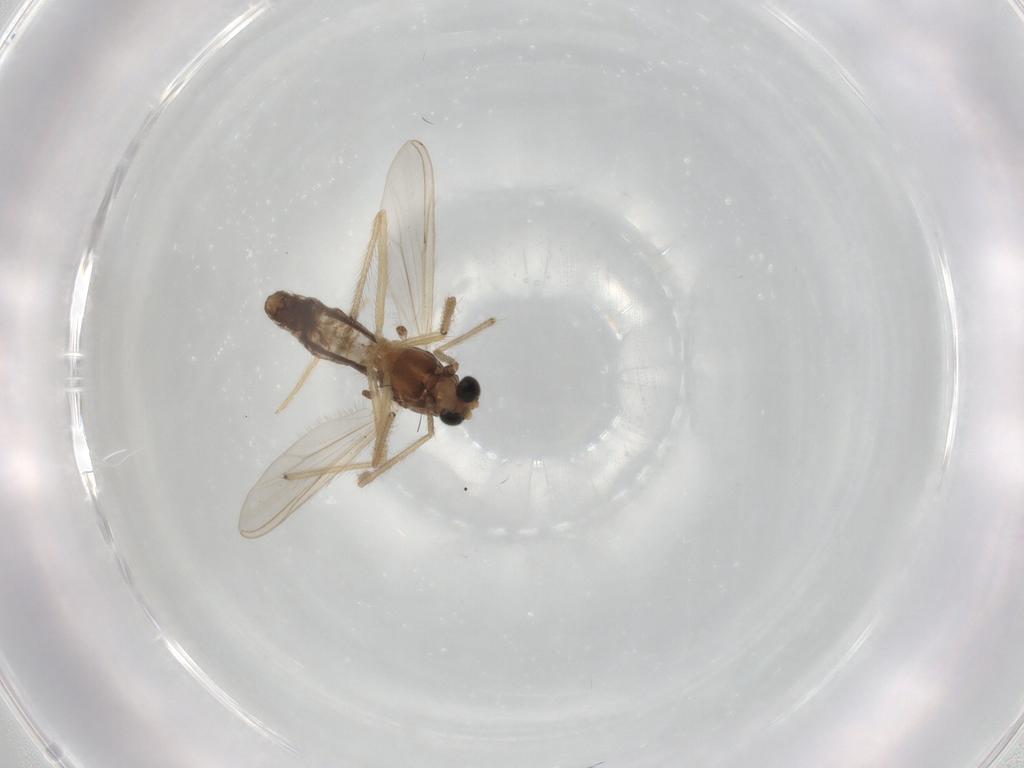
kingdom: Animalia
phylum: Arthropoda
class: Insecta
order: Diptera
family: Chironomidae
